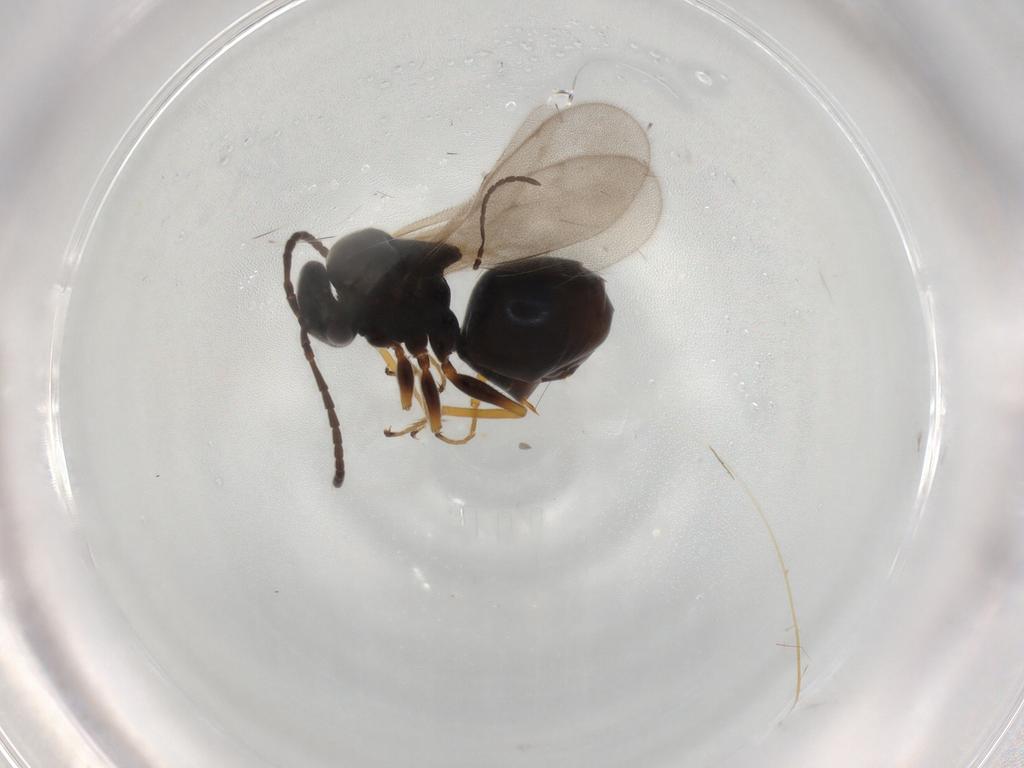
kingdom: Animalia
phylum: Arthropoda
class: Insecta
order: Hymenoptera
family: Braconidae
